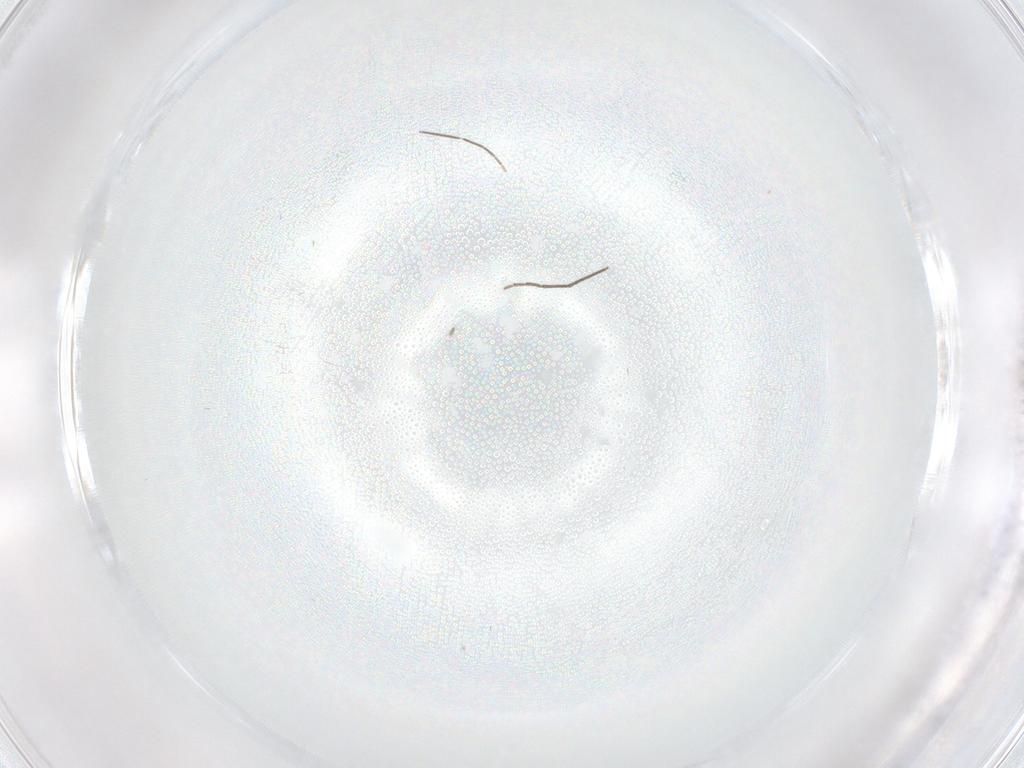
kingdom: Animalia
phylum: Arthropoda
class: Insecta
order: Diptera
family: Chironomidae
